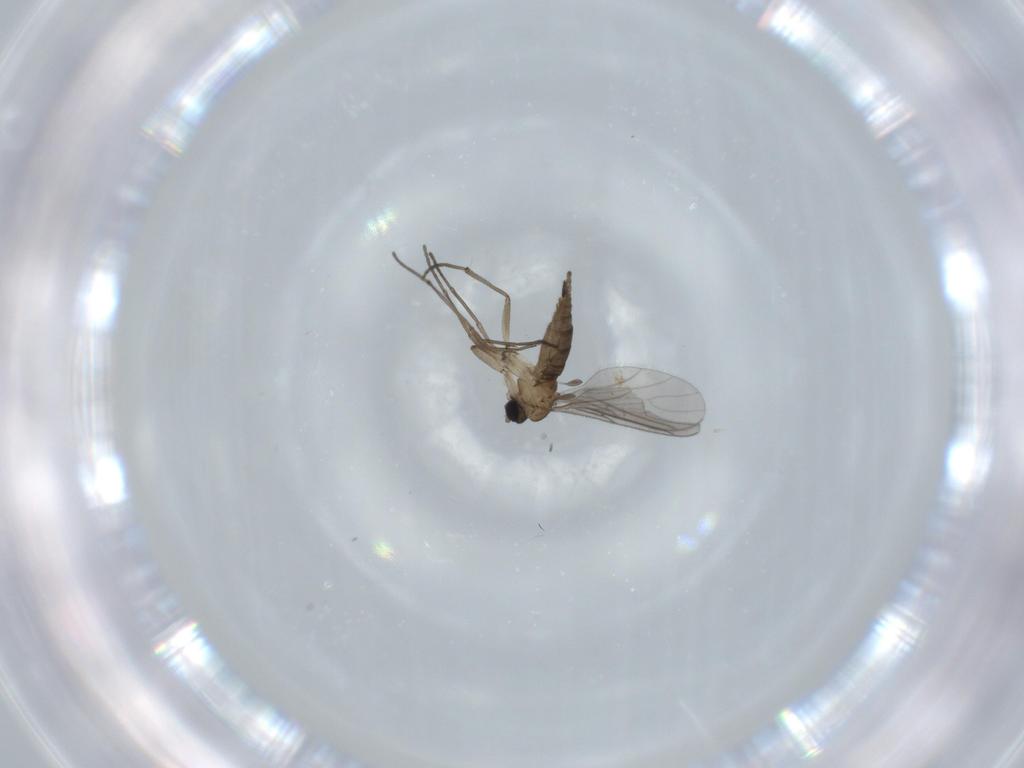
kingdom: Animalia
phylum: Arthropoda
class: Insecta
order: Diptera
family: Sciaridae
